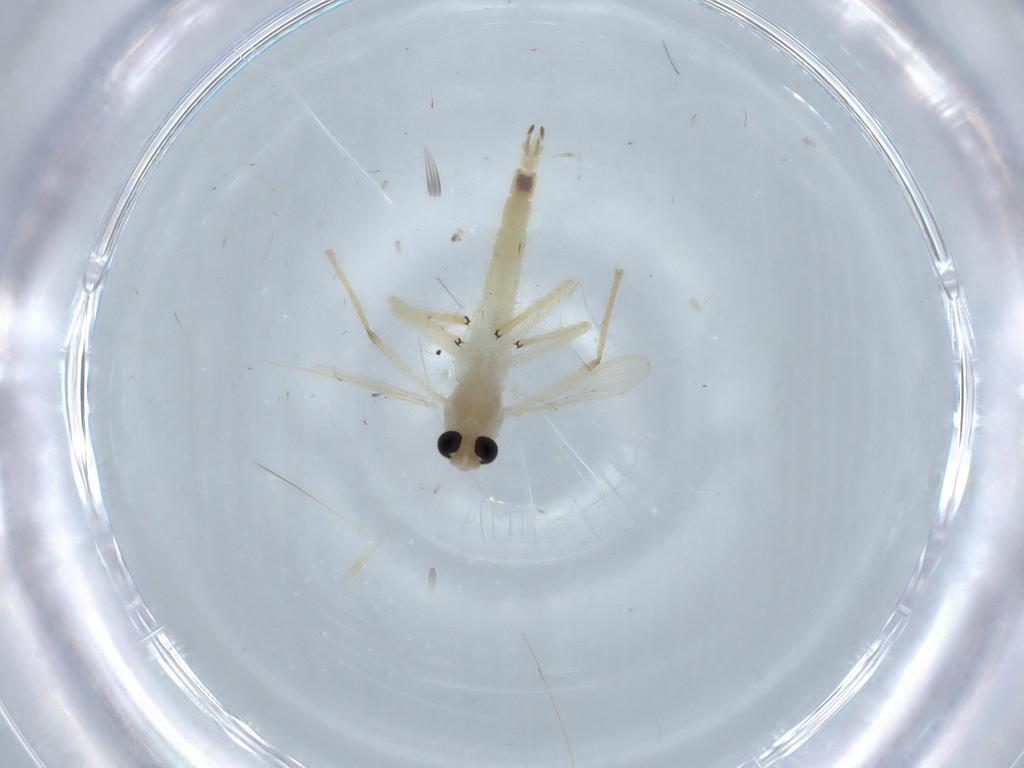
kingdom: Animalia
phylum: Arthropoda
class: Insecta
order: Diptera
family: Chironomidae
